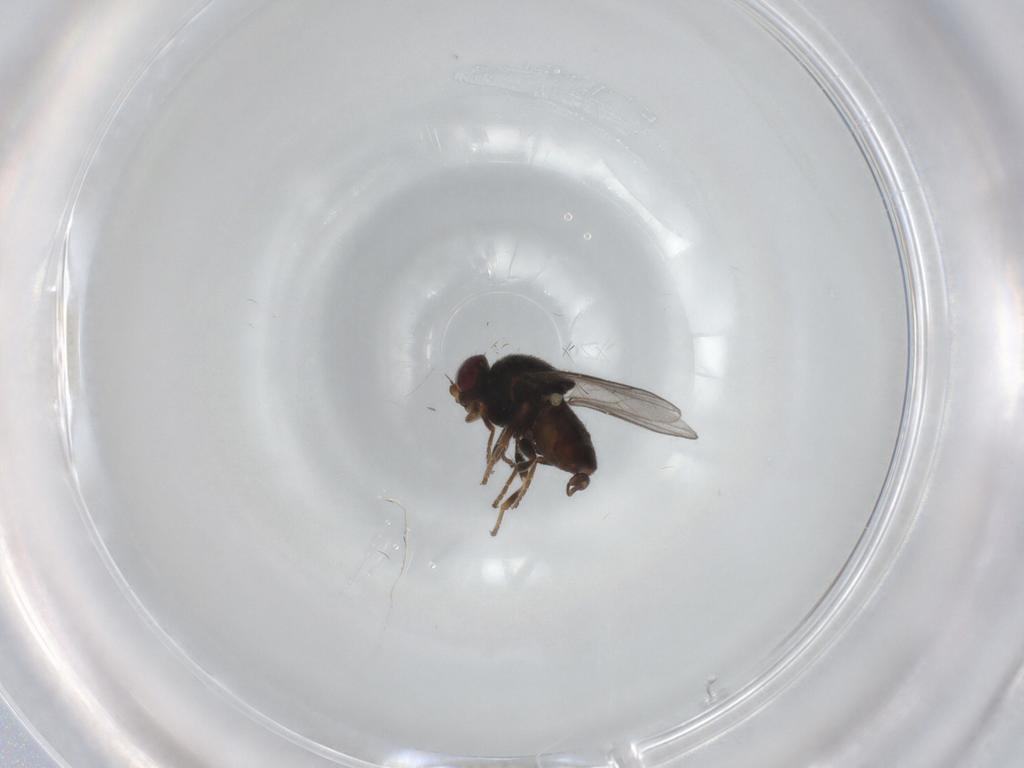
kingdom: Animalia
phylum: Arthropoda
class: Insecta
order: Diptera
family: Chloropidae
